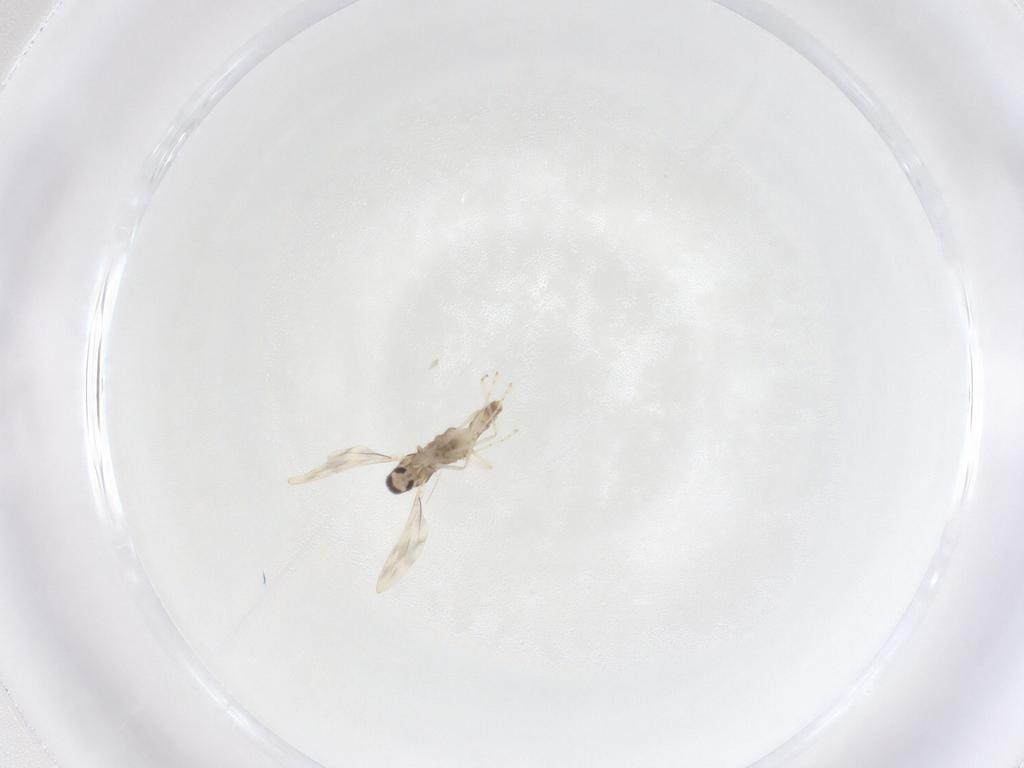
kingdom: Animalia
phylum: Arthropoda
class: Insecta
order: Diptera
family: Cecidomyiidae
